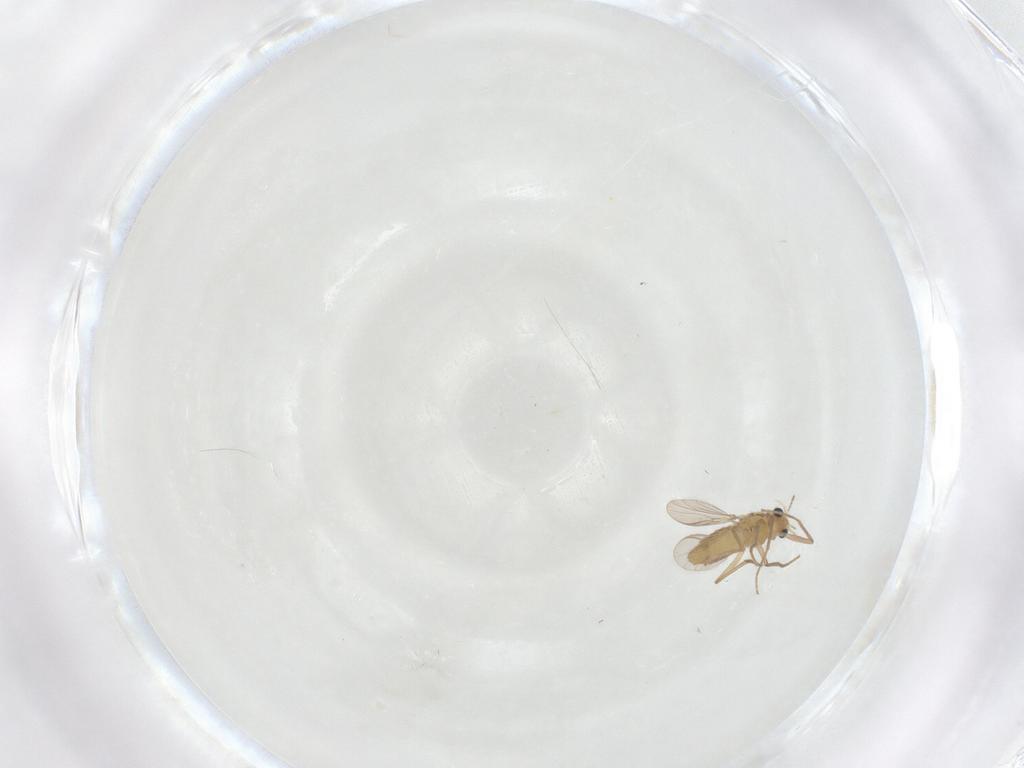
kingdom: Animalia
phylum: Arthropoda
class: Insecta
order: Diptera
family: Chironomidae
